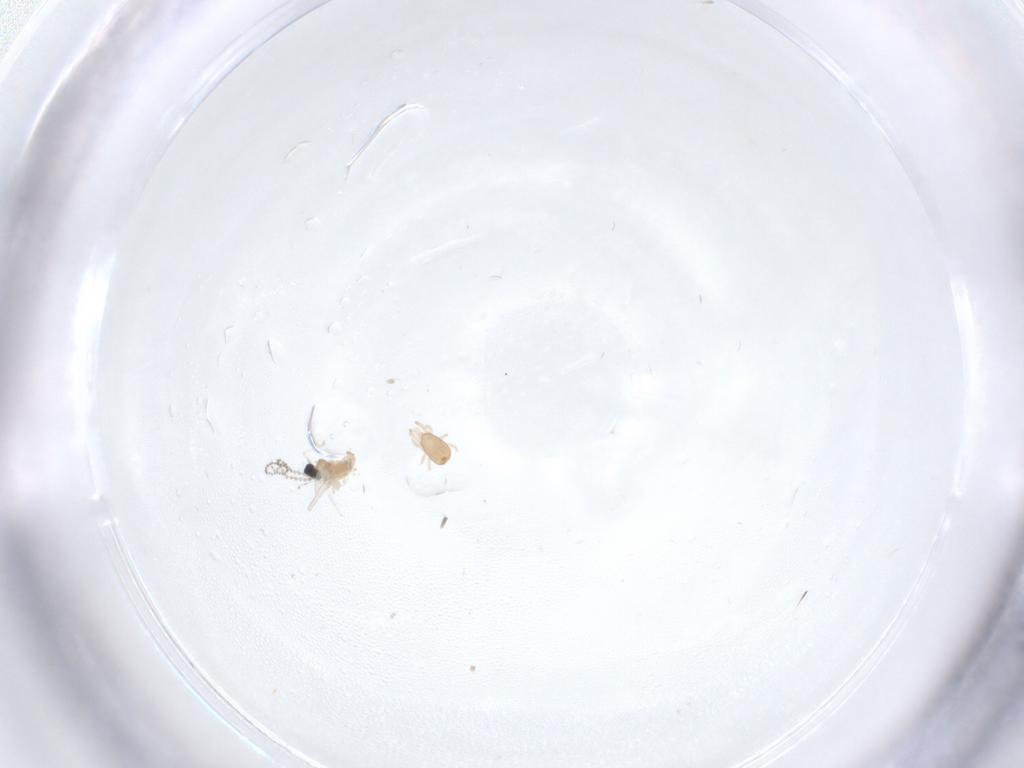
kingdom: Animalia
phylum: Arthropoda
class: Arachnida
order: Mesostigmata
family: Ascidae
